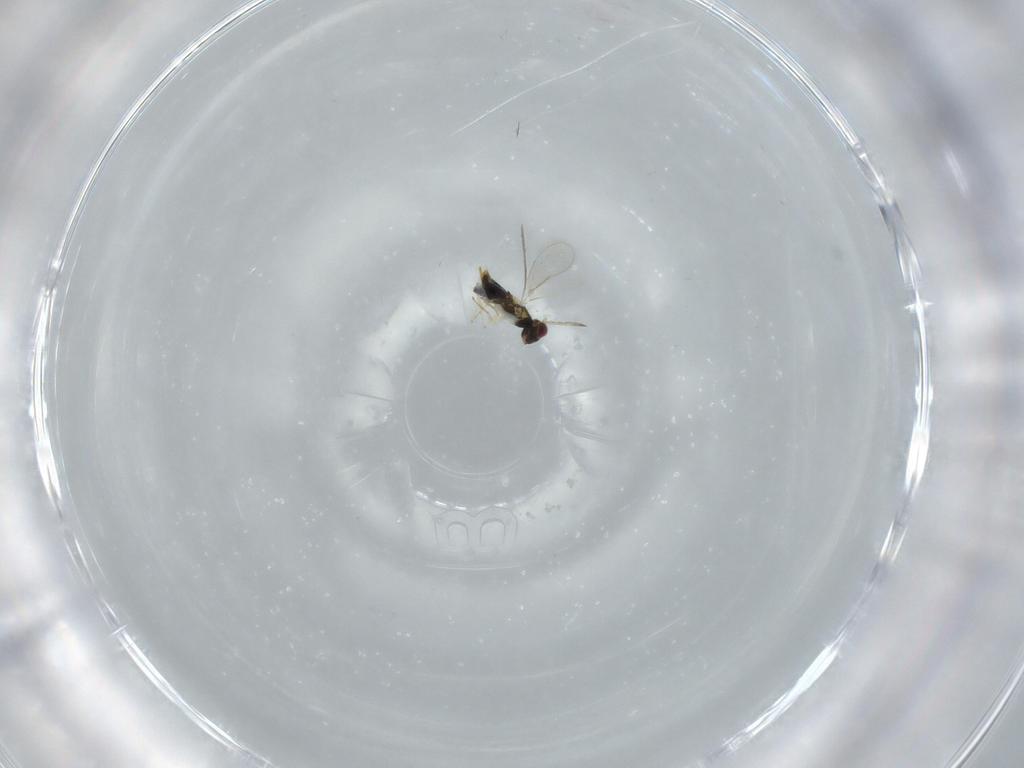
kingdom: Animalia
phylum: Arthropoda
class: Insecta
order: Hymenoptera
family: Aphelinidae
